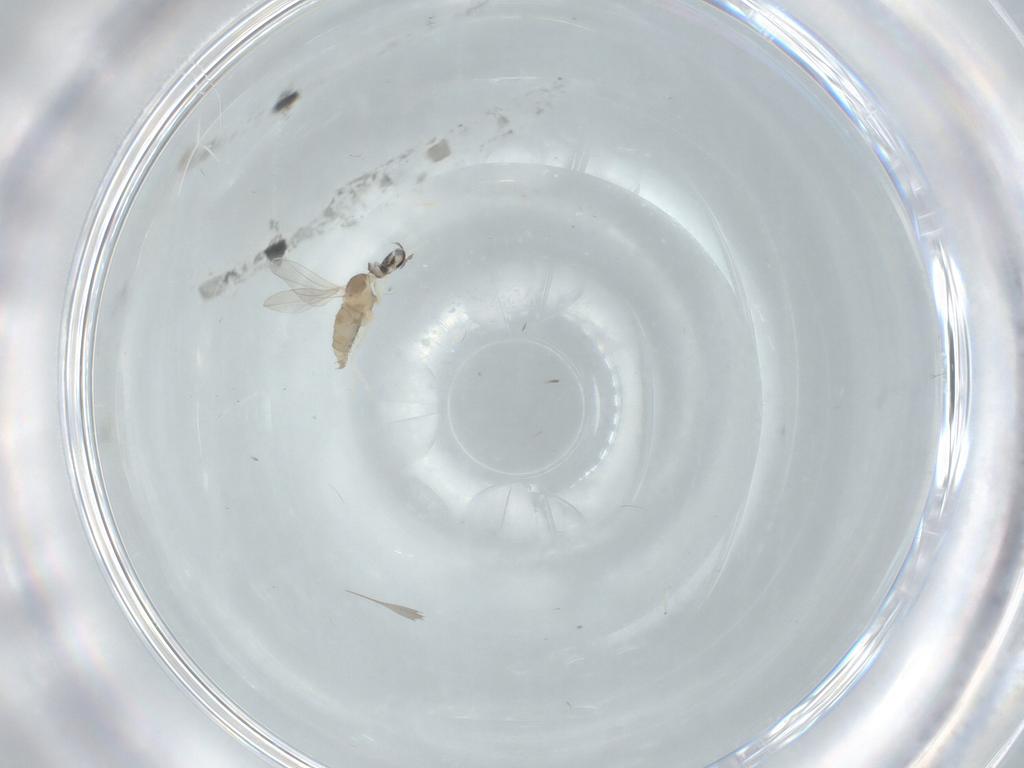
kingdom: Animalia
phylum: Arthropoda
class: Insecta
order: Diptera
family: Cecidomyiidae
